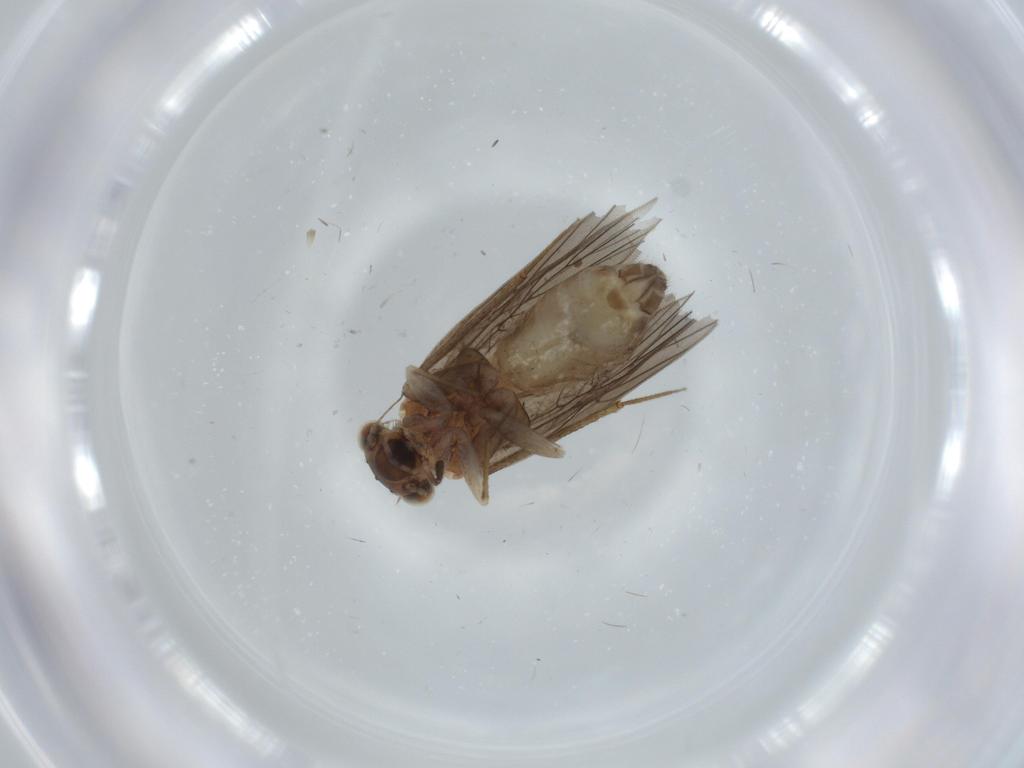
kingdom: Animalia
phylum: Arthropoda
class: Insecta
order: Psocodea
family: Lepidopsocidae
